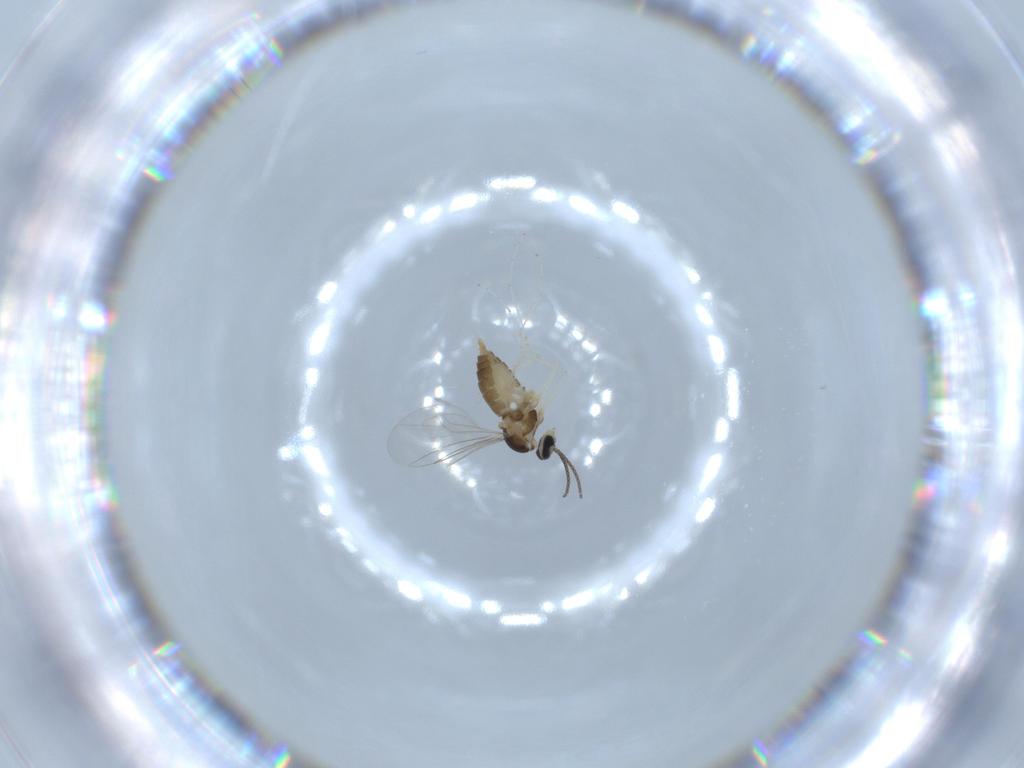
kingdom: Animalia
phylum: Arthropoda
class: Insecta
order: Diptera
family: Cecidomyiidae
